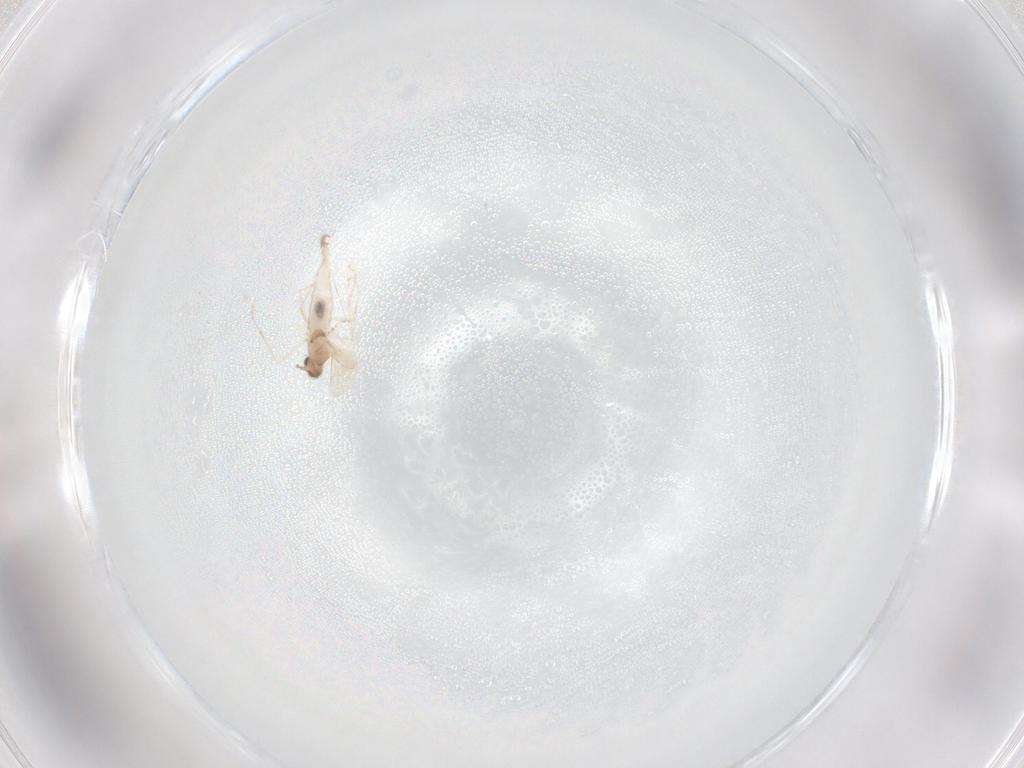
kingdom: Animalia
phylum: Arthropoda
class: Insecta
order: Diptera
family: Cecidomyiidae
